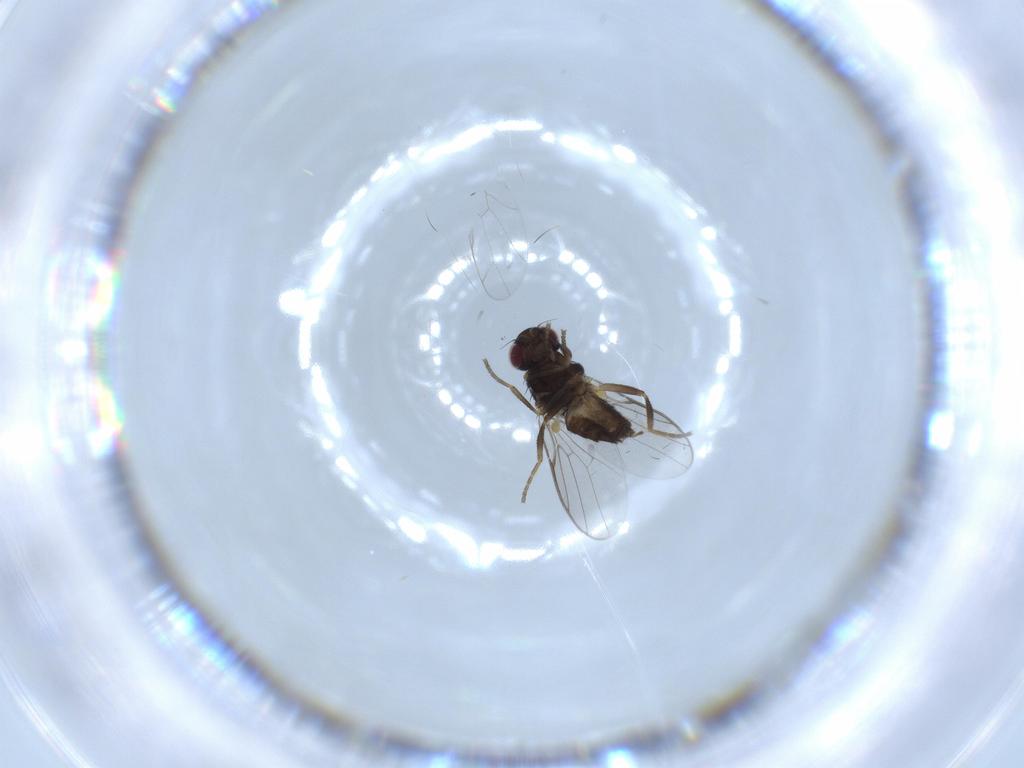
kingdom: Animalia
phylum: Arthropoda
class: Insecta
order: Diptera
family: Chloropidae
